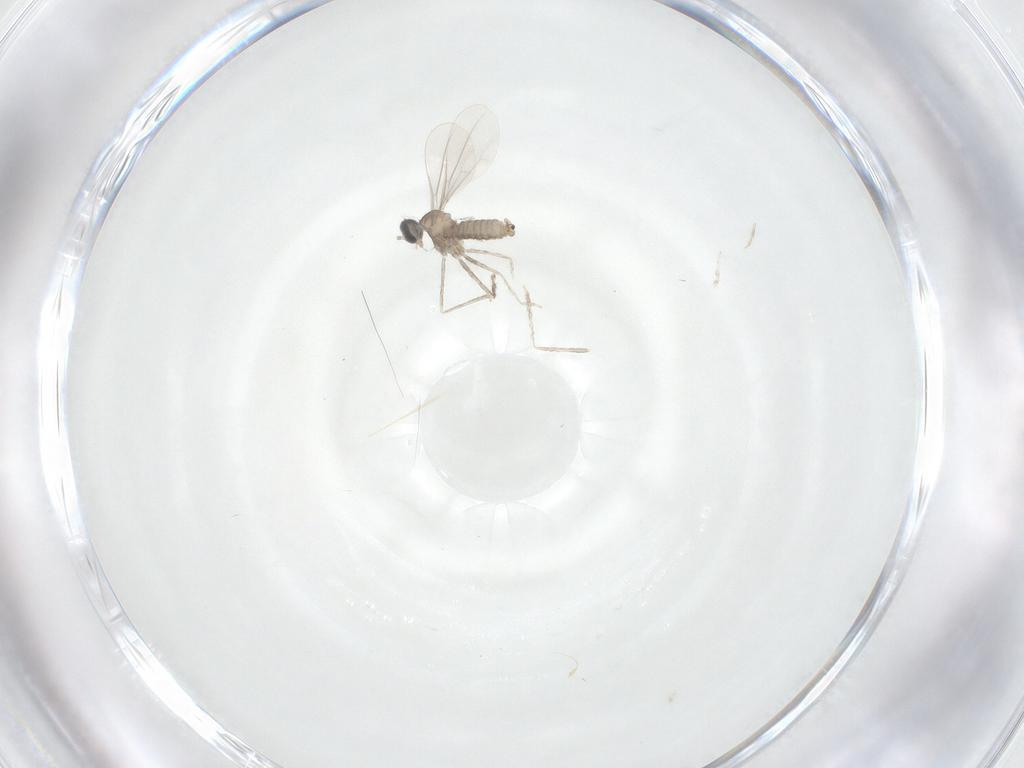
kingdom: Animalia
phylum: Arthropoda
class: Insecta
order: Diptera
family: Cecidomyiidae
